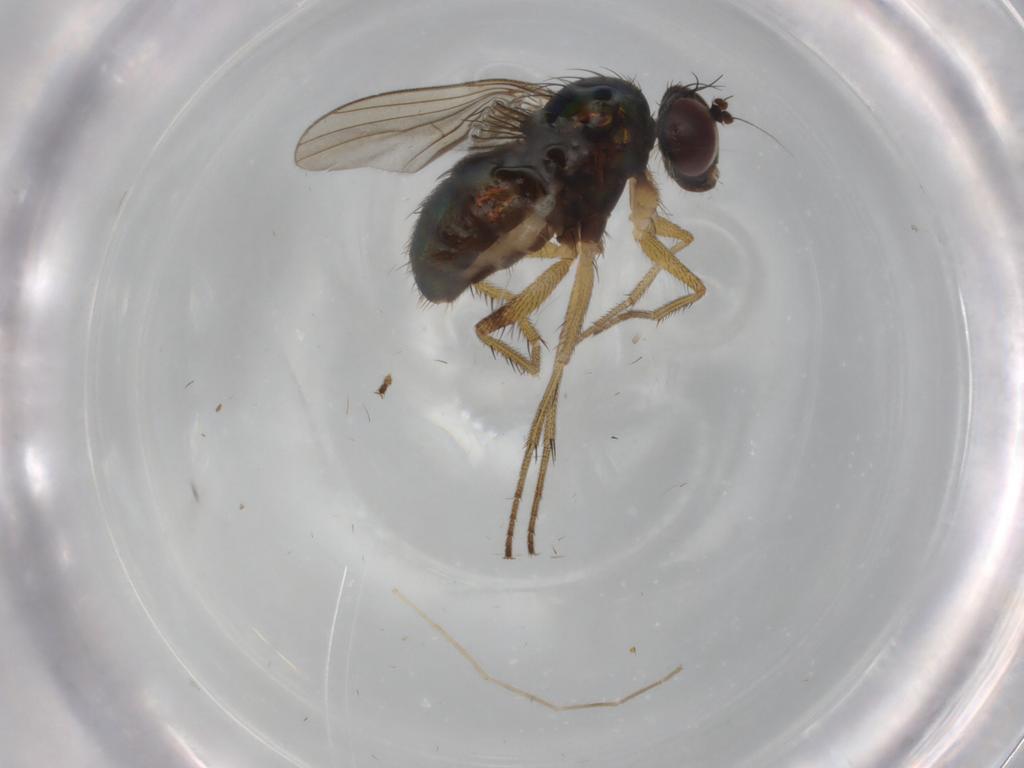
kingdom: Animalia
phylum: Arthropoda
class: Insecta
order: Diptera
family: Dolichopodidae
